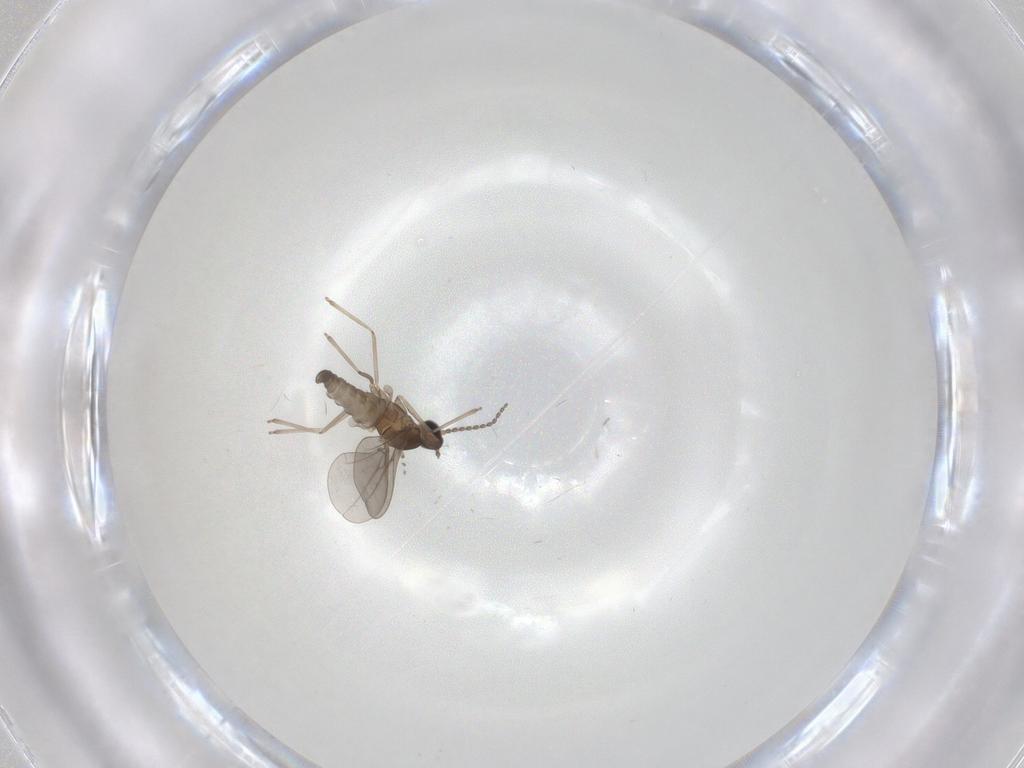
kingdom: Animalia
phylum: Arthropoda
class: Insecta
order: Diptera
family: Cecidomyiidae
